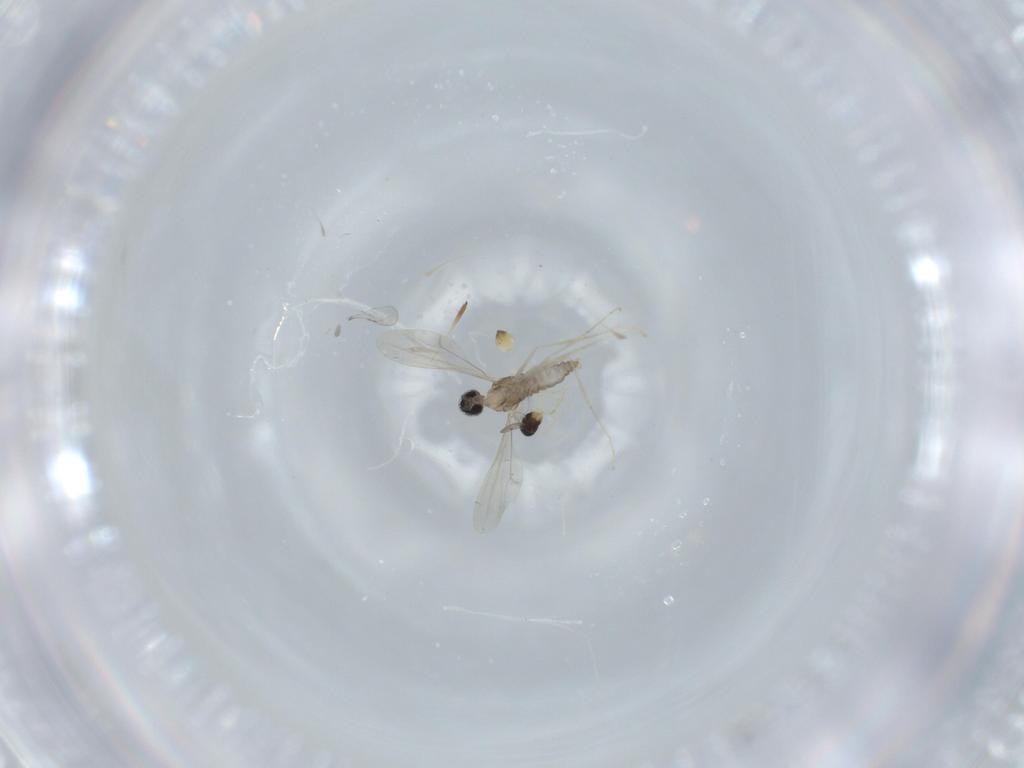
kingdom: Animalia
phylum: Arthropoda
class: Insecta
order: Diptera
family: Cecidomyiidae
